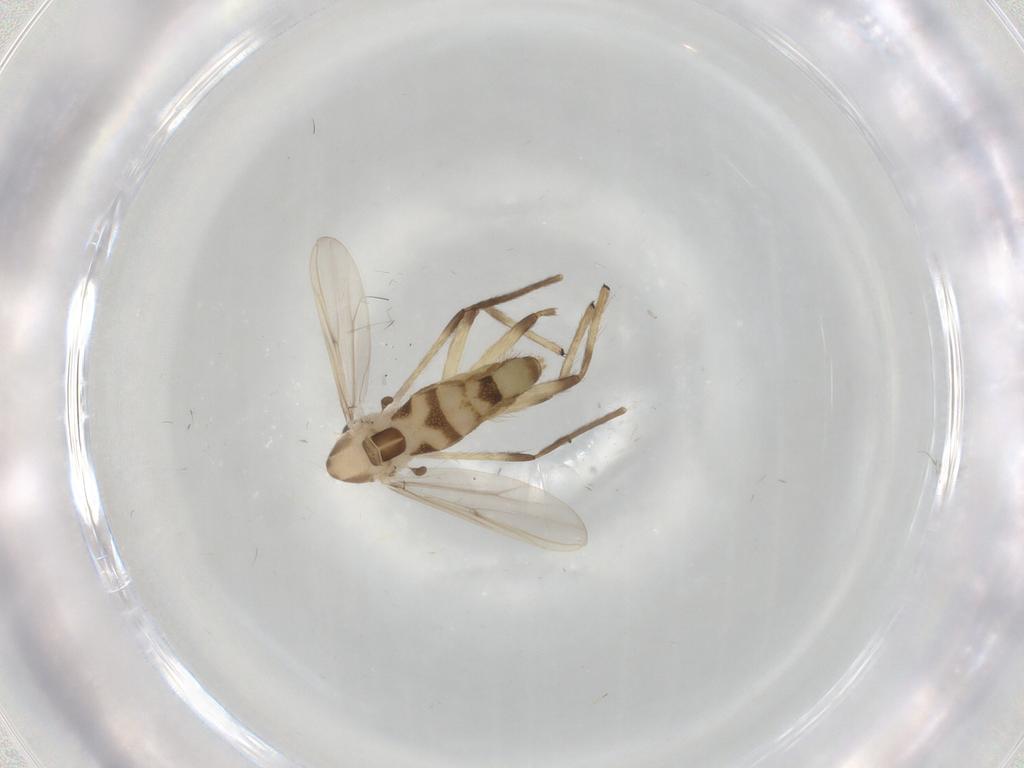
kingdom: Animalia
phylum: Arthropoda
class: Insecta
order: Diptera
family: Chironomidae
